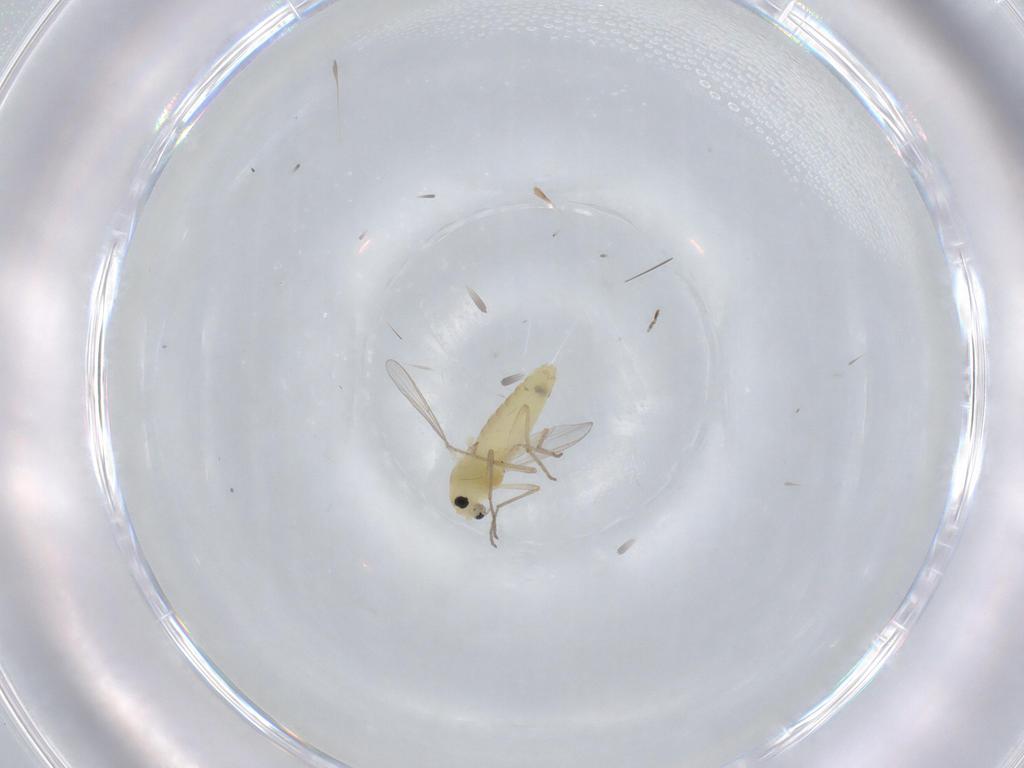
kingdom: Animalia
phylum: Arthropoda
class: Insecta
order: Diptera
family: Chironomidae
